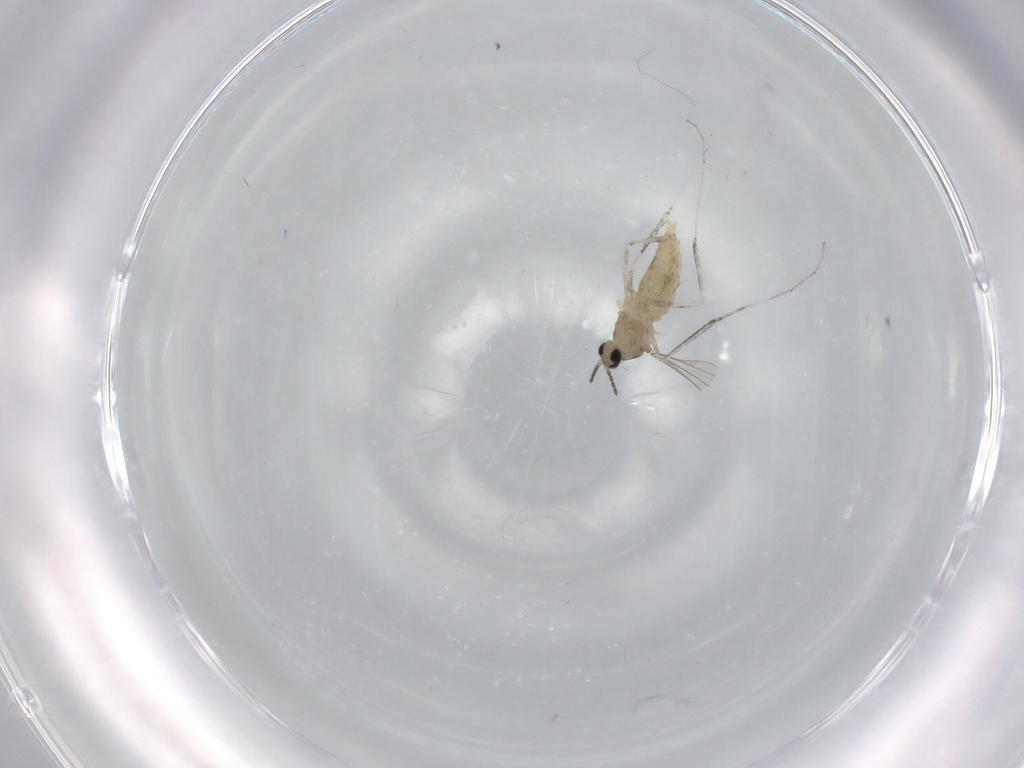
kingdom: Animalia
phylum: Arthropoda
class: Insecta
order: Diptera
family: Cecidomyiidae
